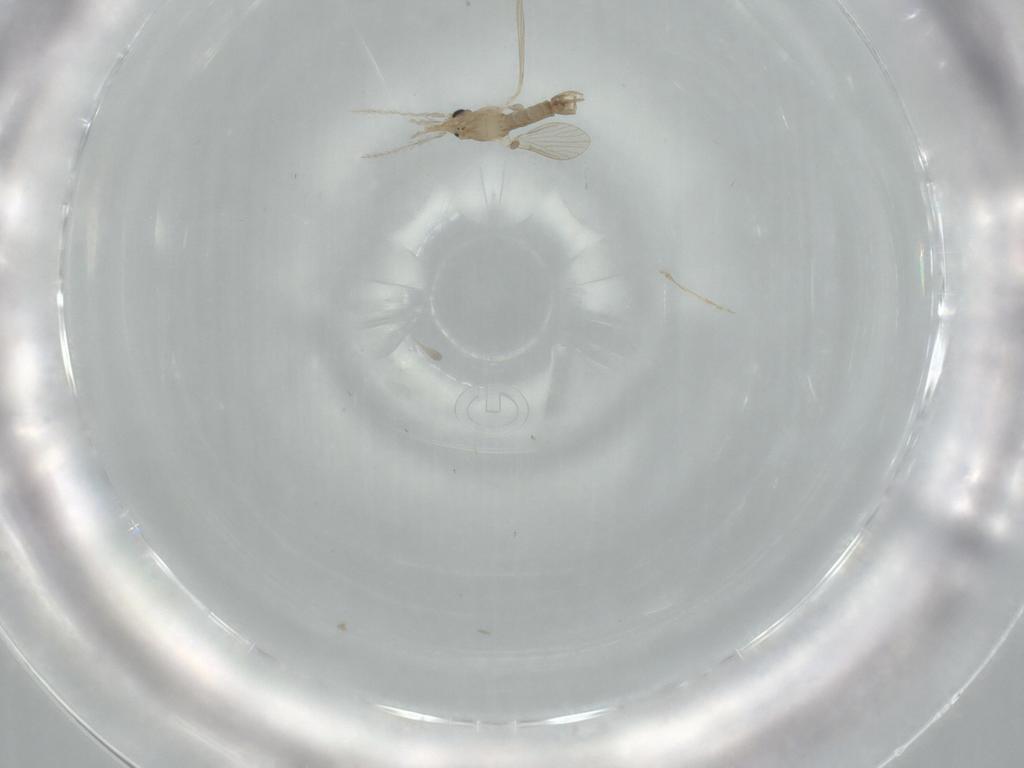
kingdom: Animalia
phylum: Arthropoda
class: Insecta
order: Diptera
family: Psychodidae
